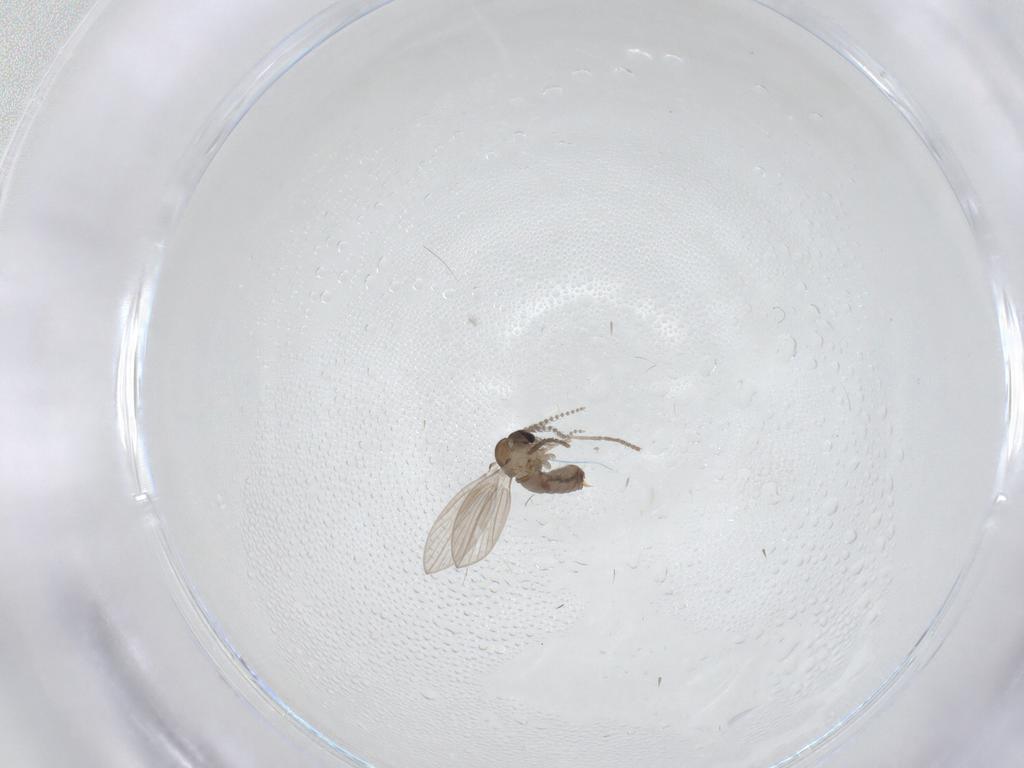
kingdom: Animalia
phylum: Arthropoda
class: Insecta
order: Diptera
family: Psychodidae
